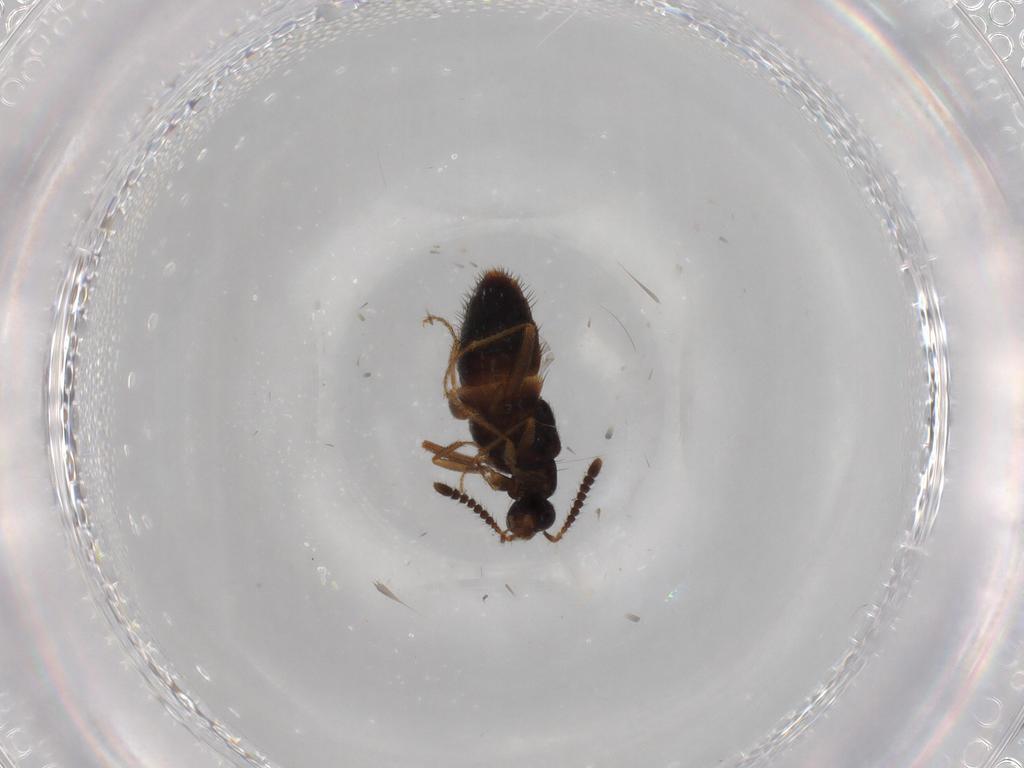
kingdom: Animalia
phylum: Arthropoda
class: Insecta
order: Coleoptera
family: Staphylinidae
